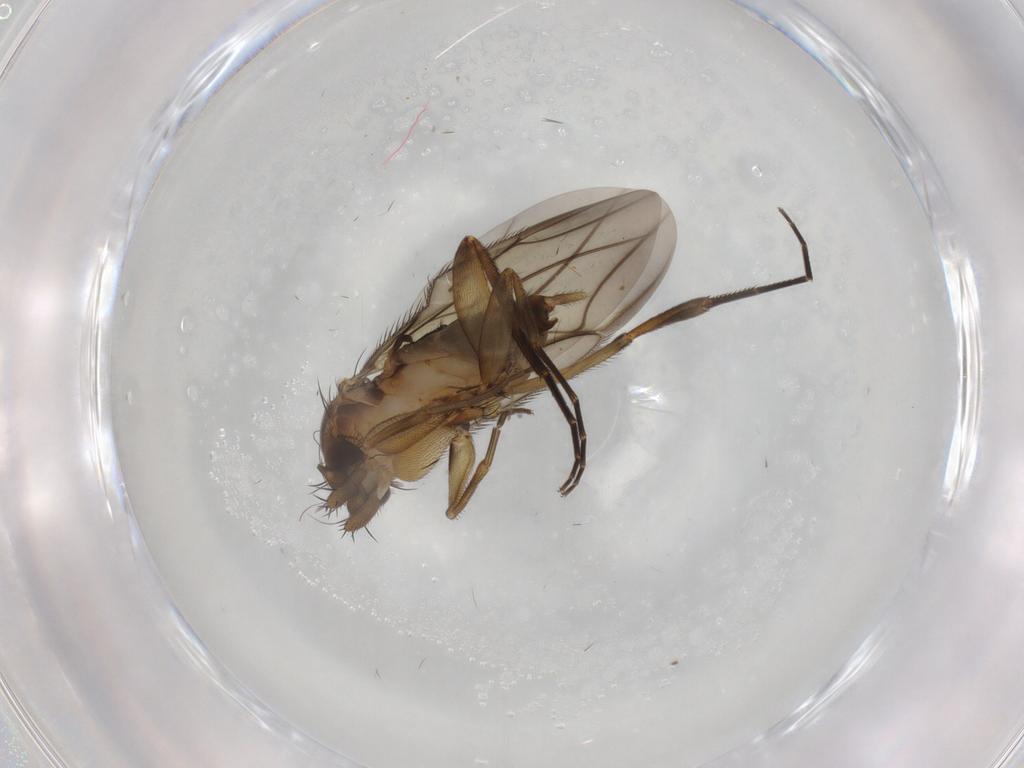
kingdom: Animalia
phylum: Arthropoda
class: Insecta
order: Diptera
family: Phoridae
